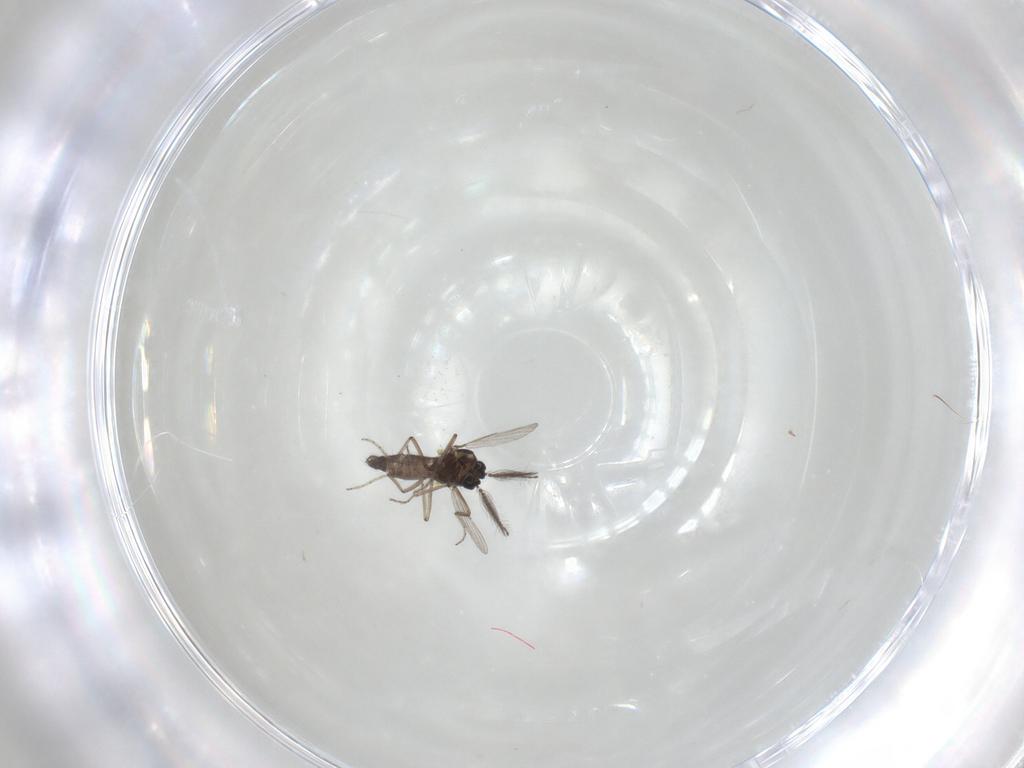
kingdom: Animalia
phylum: Arthropoda
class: Insecta
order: Diptera
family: Ceratopogonidae
